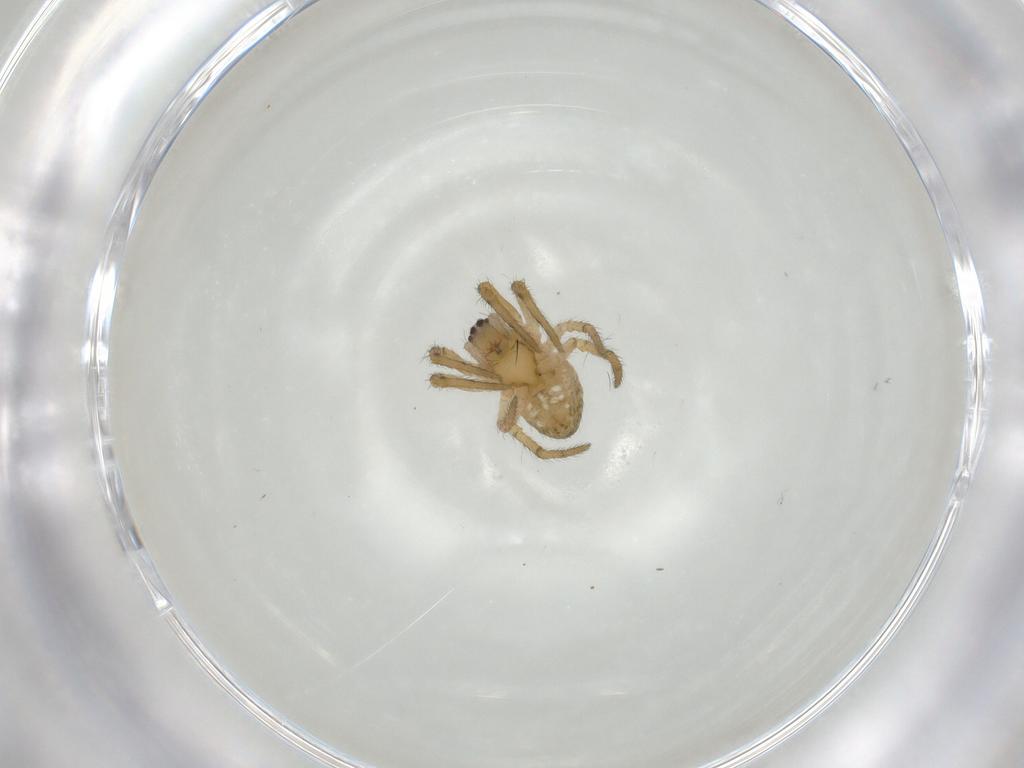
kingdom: Animalia
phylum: Arthropoda
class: Arachnida
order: Araneae
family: Araneidae
